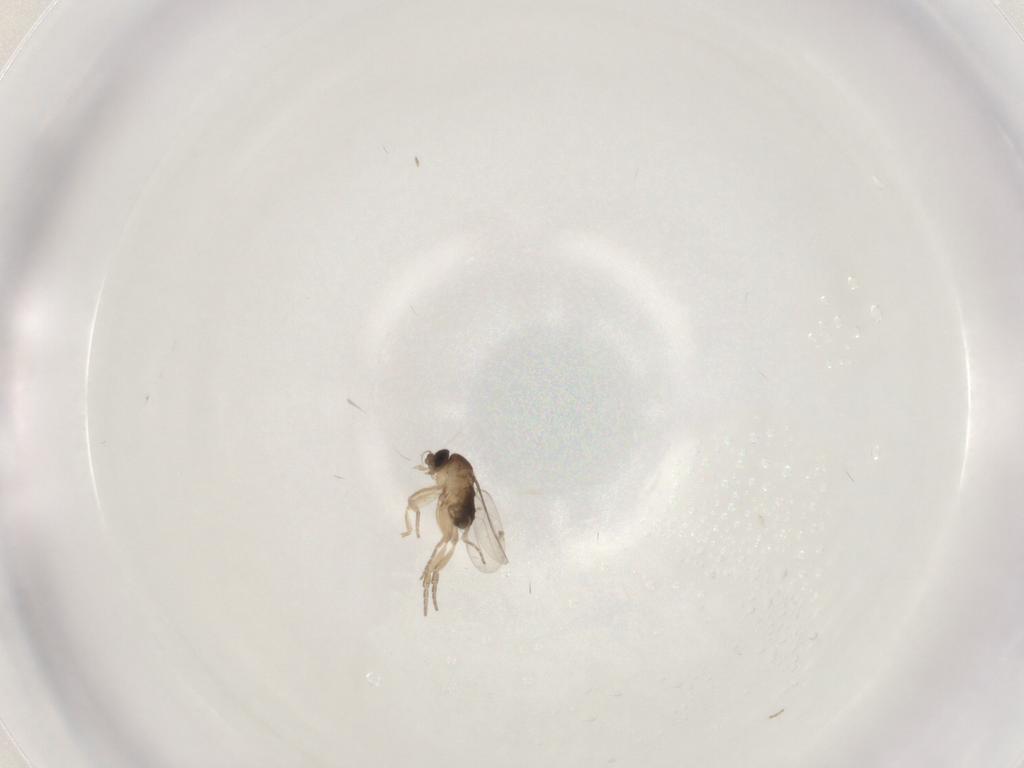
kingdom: Animalia
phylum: Arthropoda
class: Insecta
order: Diptera
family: Phoridae
